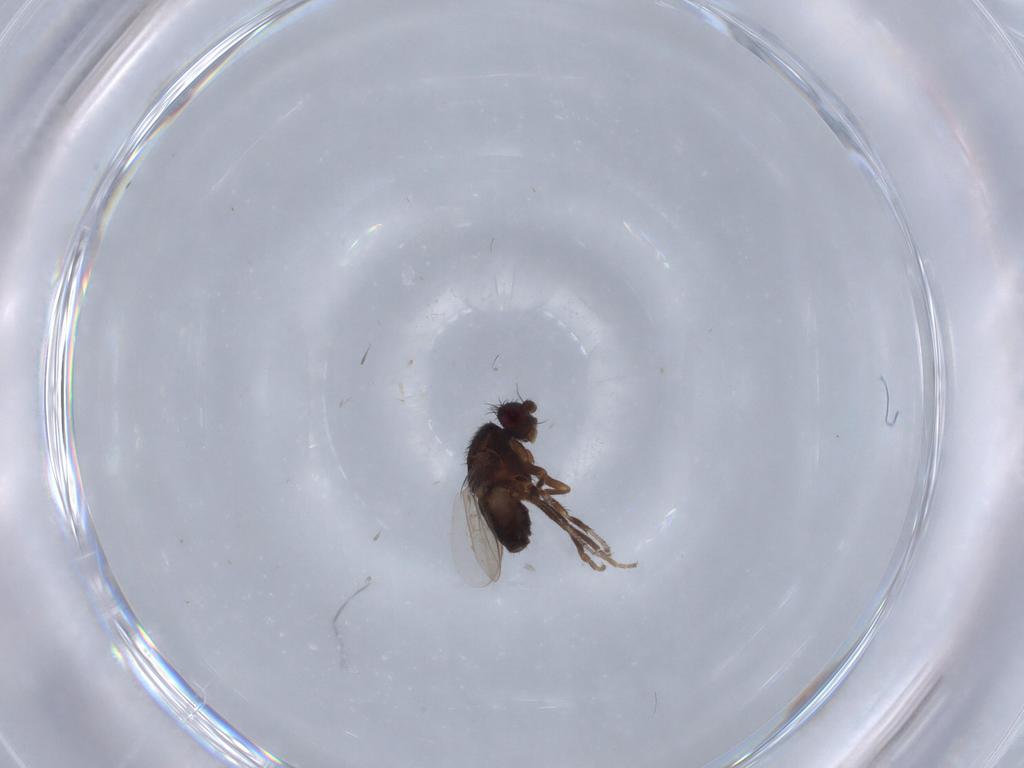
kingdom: Animalia
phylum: Arthropoda
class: Insecta
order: Diptera
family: Sphaeroceridae
